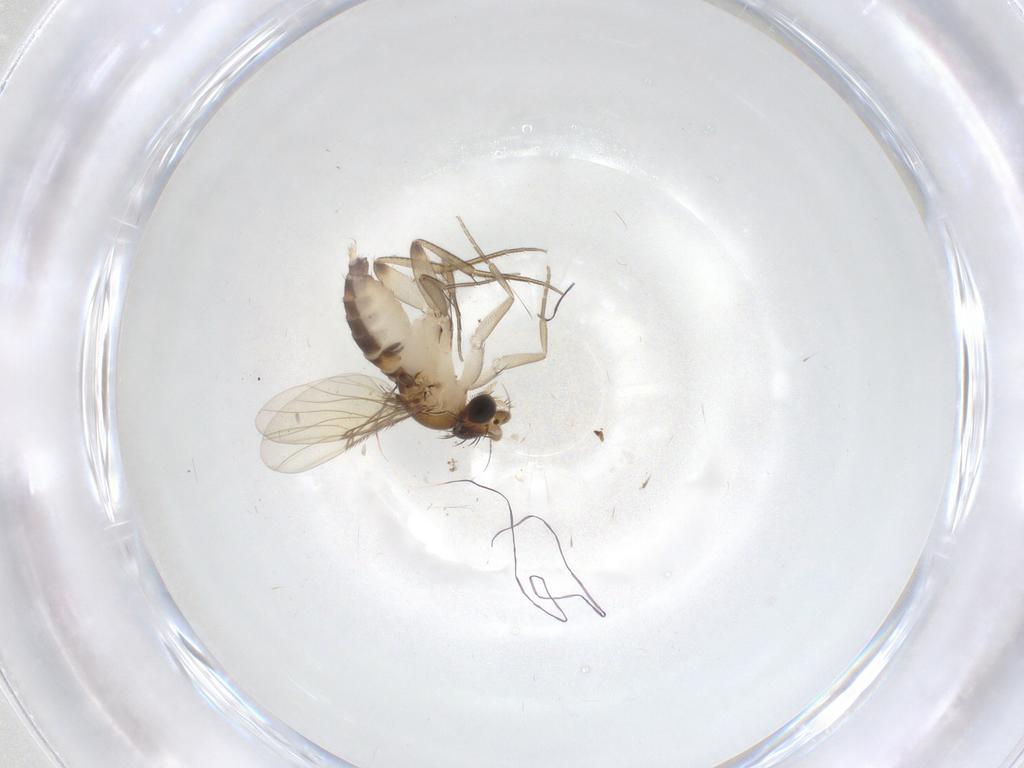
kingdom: Animalia
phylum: Arthropoda
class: Insecta
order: Diptera
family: Phoridae
